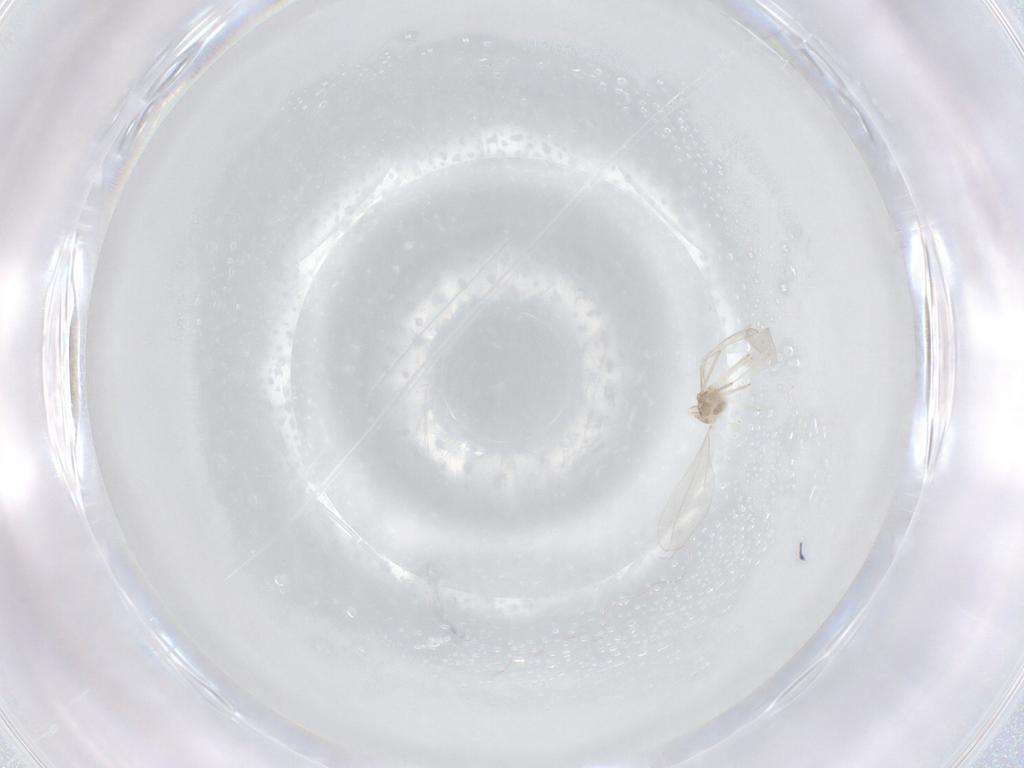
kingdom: Animalia
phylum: Arthropoda
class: Insecta
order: Diptera
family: Cecidomyiidae
